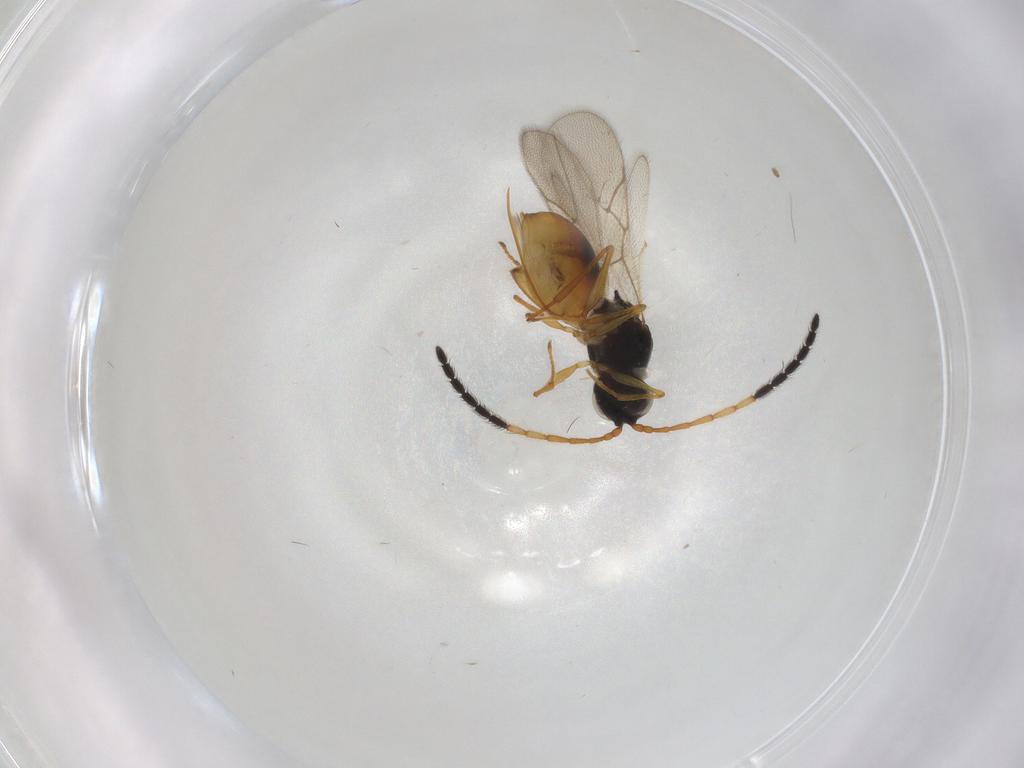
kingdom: Animalia
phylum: Arthropoda
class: Insecta
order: Hymenoptera
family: Figitidae
